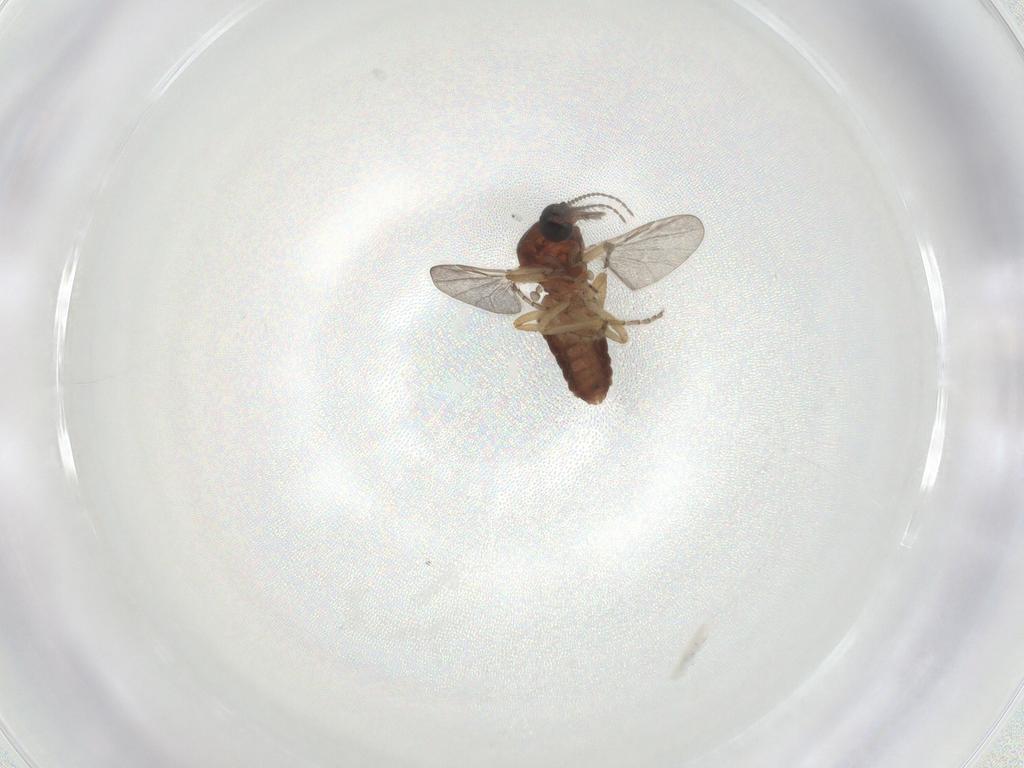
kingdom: Animalia
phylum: Arthropoda
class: Insecta
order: Diptera
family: Ceratopogonidae
